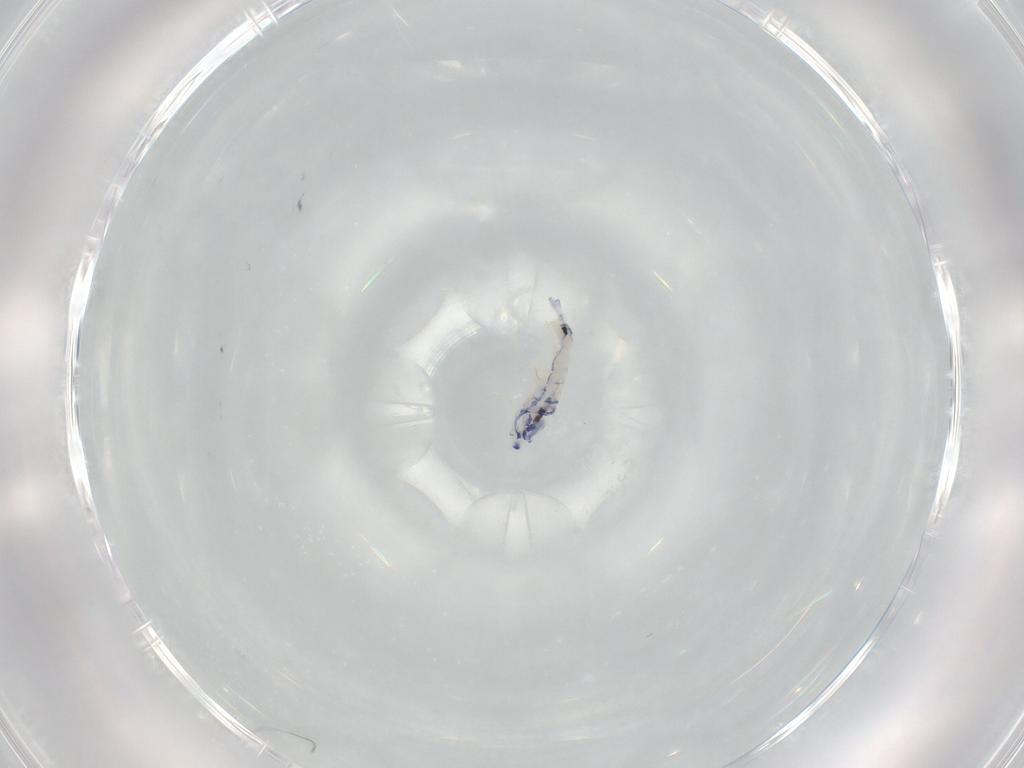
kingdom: Animalia
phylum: Arthropoda
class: Collembola
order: Entomobryomorpha
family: Entomobryidae
